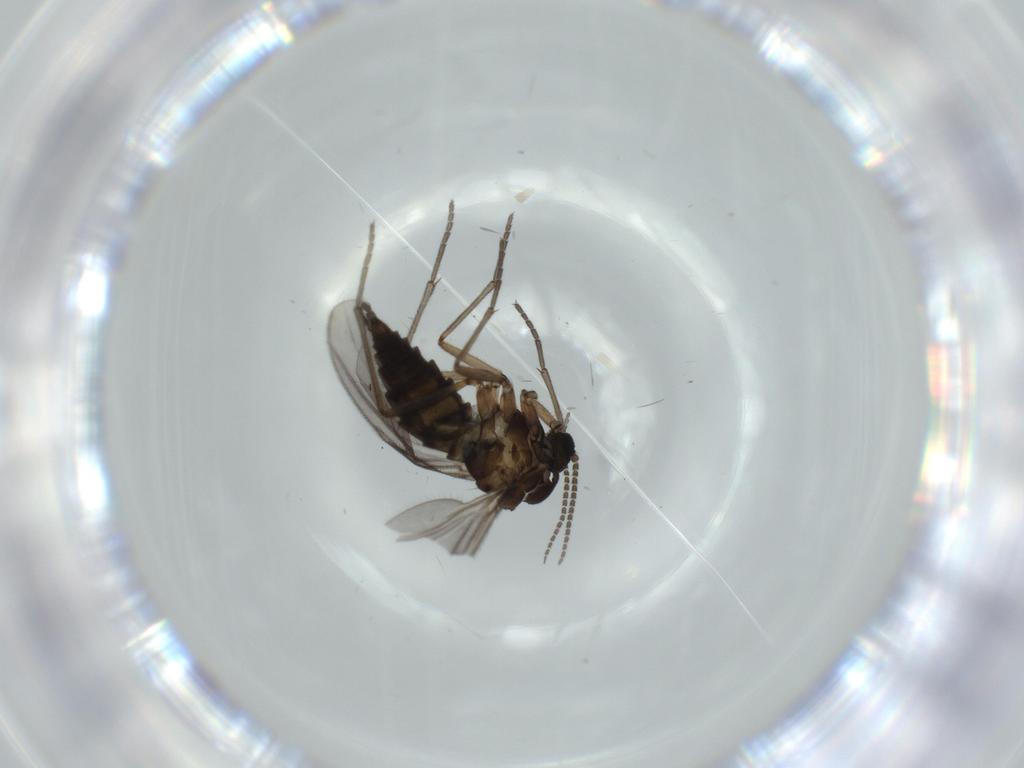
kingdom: Animalia
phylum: Arthropoda
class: Insecta
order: Diptera
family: Sciaridae
